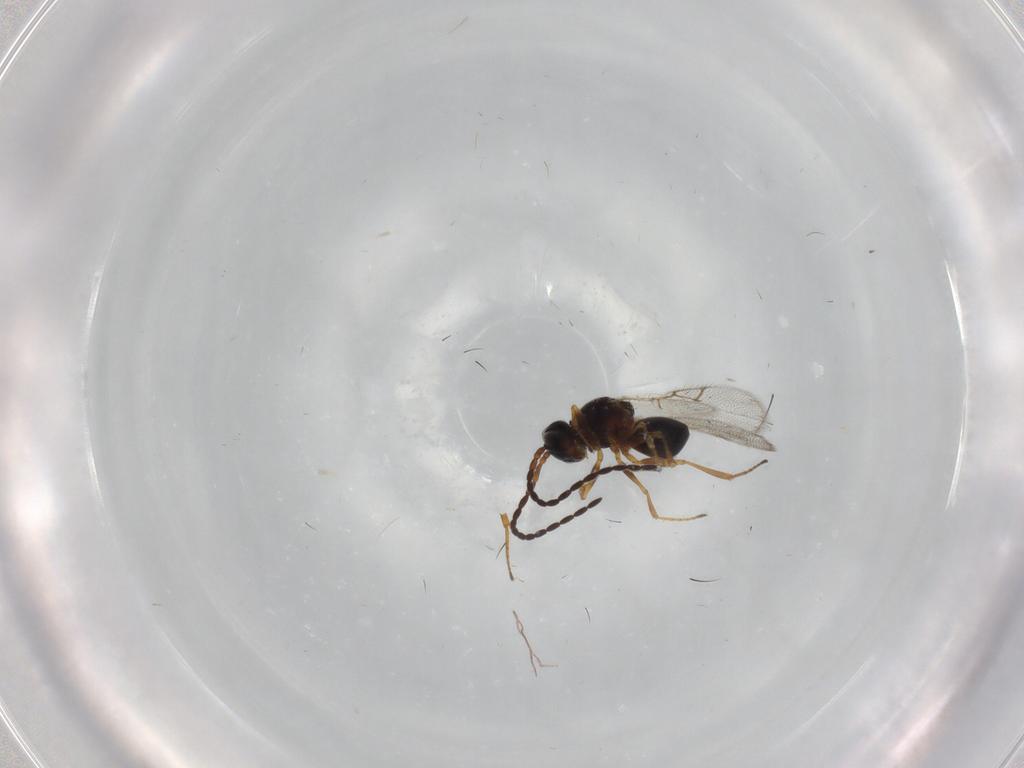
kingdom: Animalia
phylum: Arthropoda
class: Insecta
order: Hymenoptera
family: Figitidae
